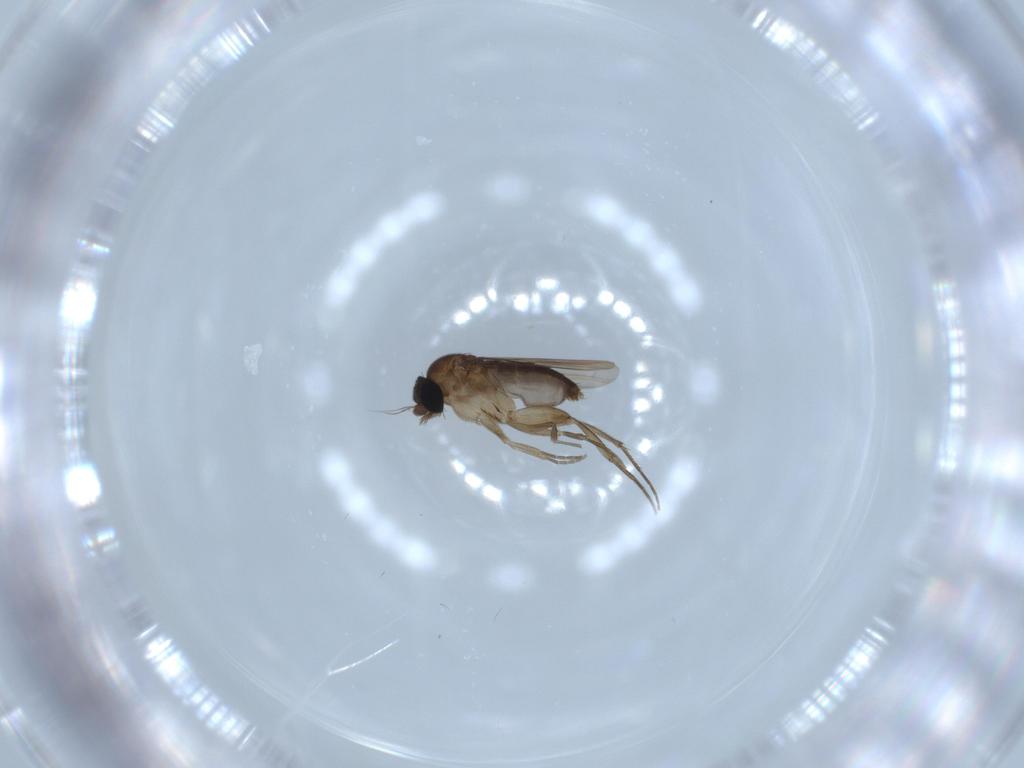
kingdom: Animalia
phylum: Arthropoda
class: Insecta
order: Diptera
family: Phoridae
